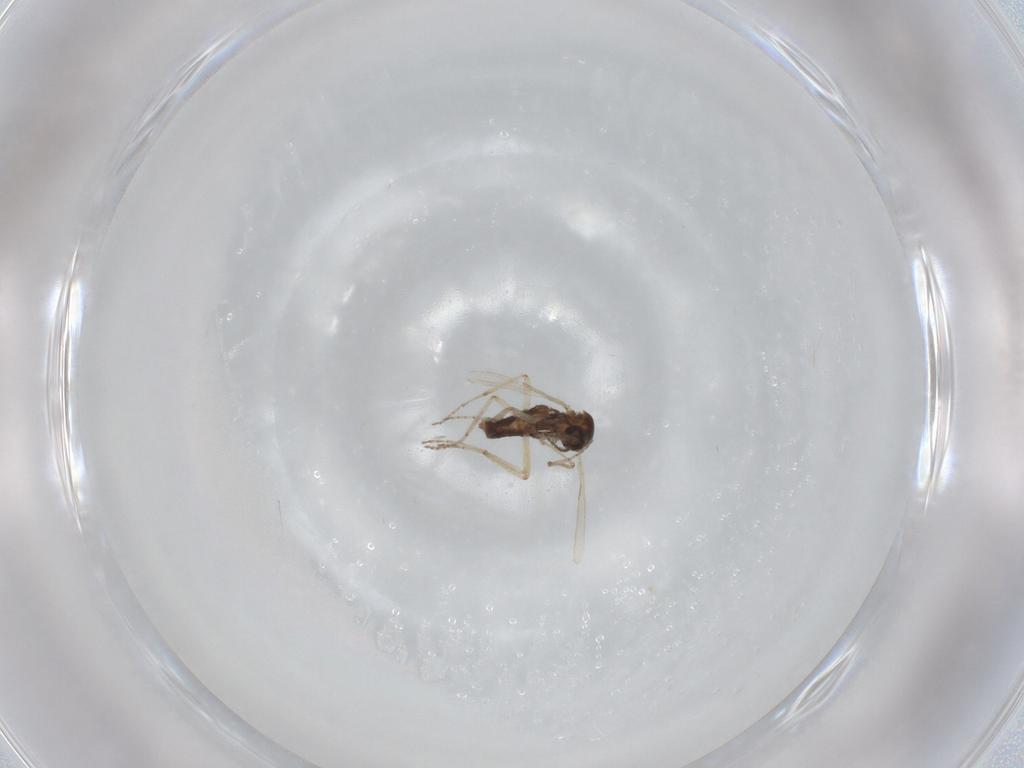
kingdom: Animalia
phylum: Arthropoda
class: Insecta
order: Diptera
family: Ceratopogonidae
